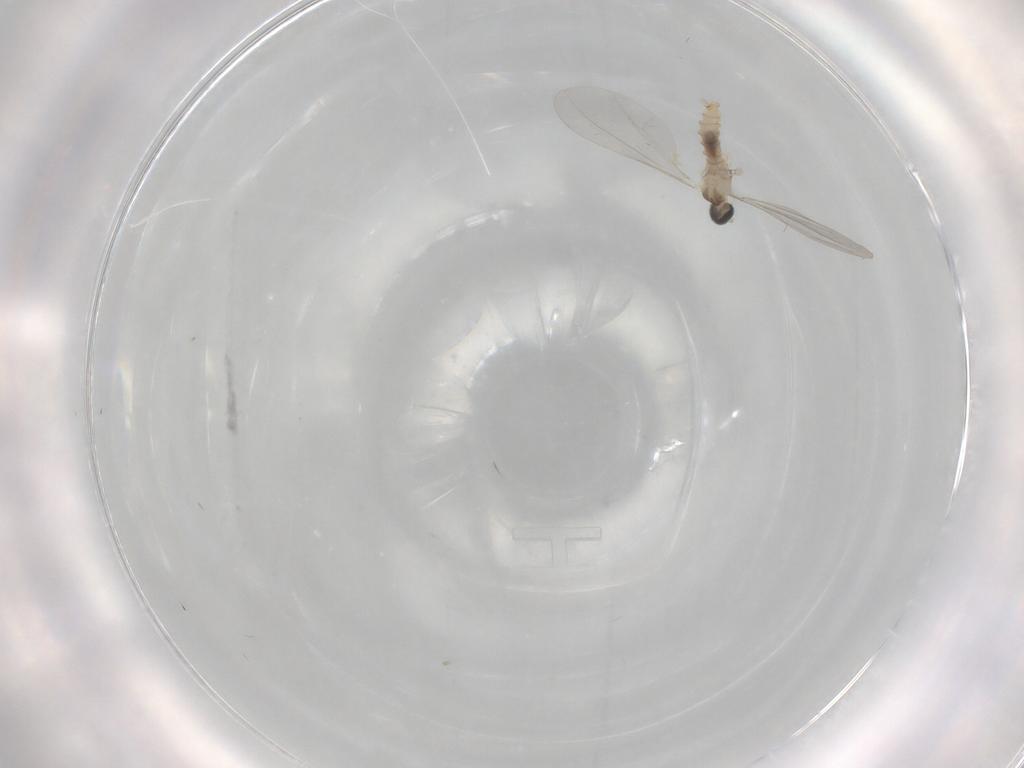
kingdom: Animalia
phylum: Arthropoda
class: Insecta
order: Diptera
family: Cecidomyiidae
